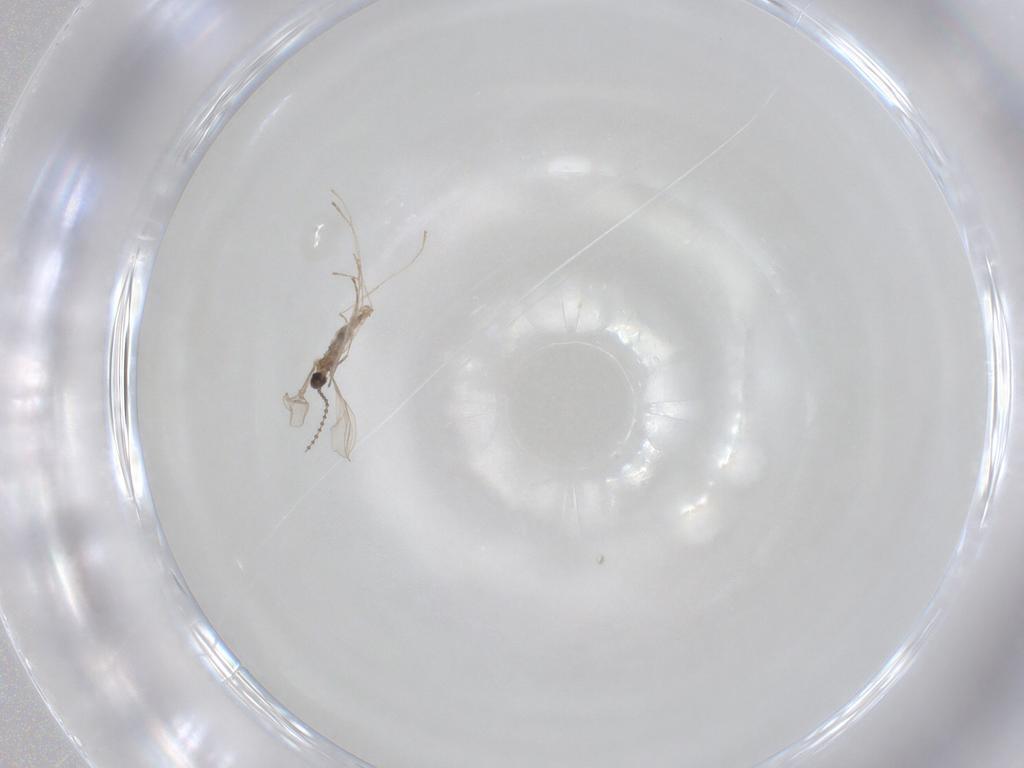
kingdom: Animalia
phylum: Arthropoda
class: Insecta
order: Diptera
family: Cecidomyiidae
